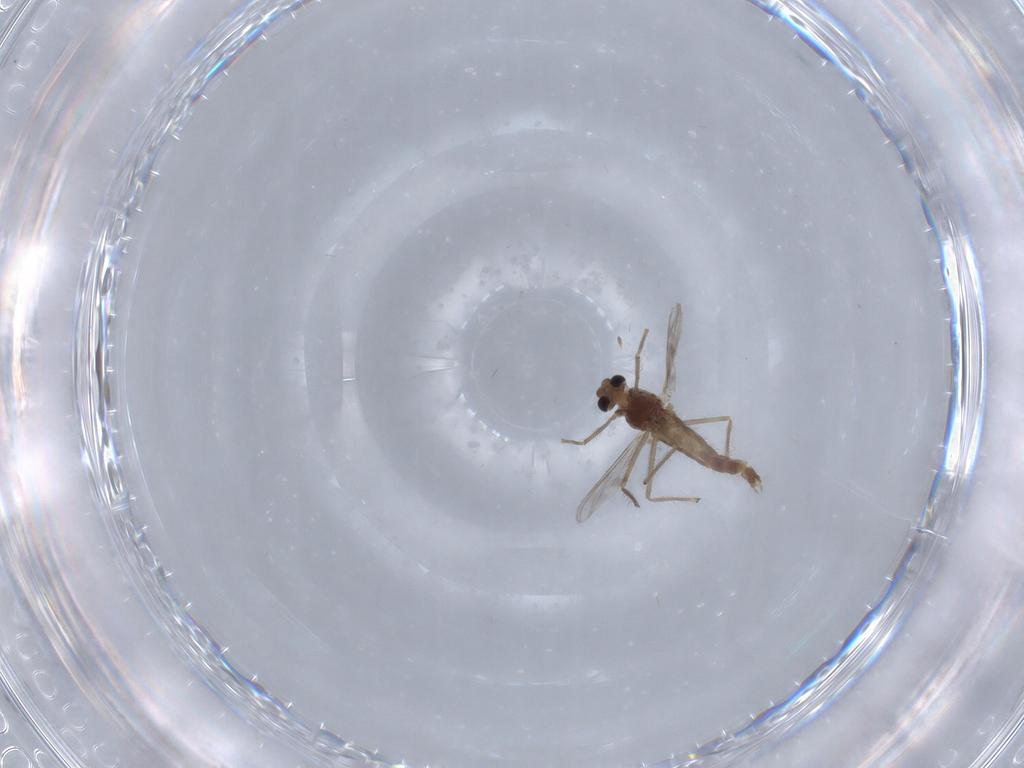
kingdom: Animalia
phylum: Arthropoda
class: Insecta
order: Diptera
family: Chironomidae
